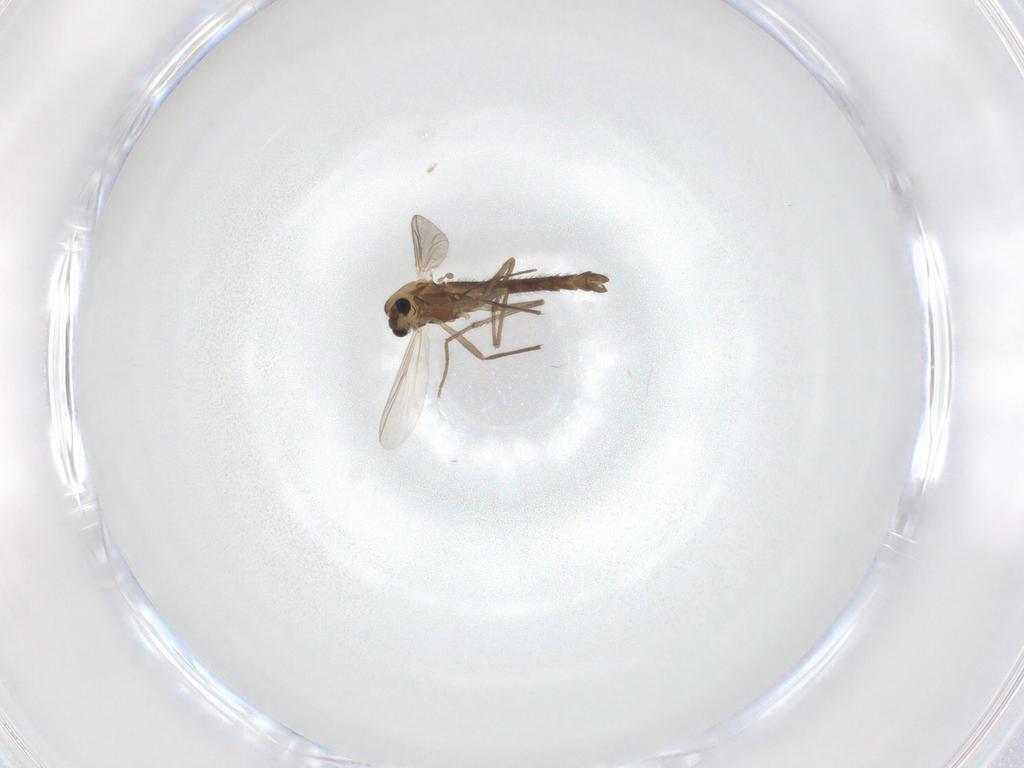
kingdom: Animalia
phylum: Arthropoda
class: Insecta
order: Diptera
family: Chironomidae
